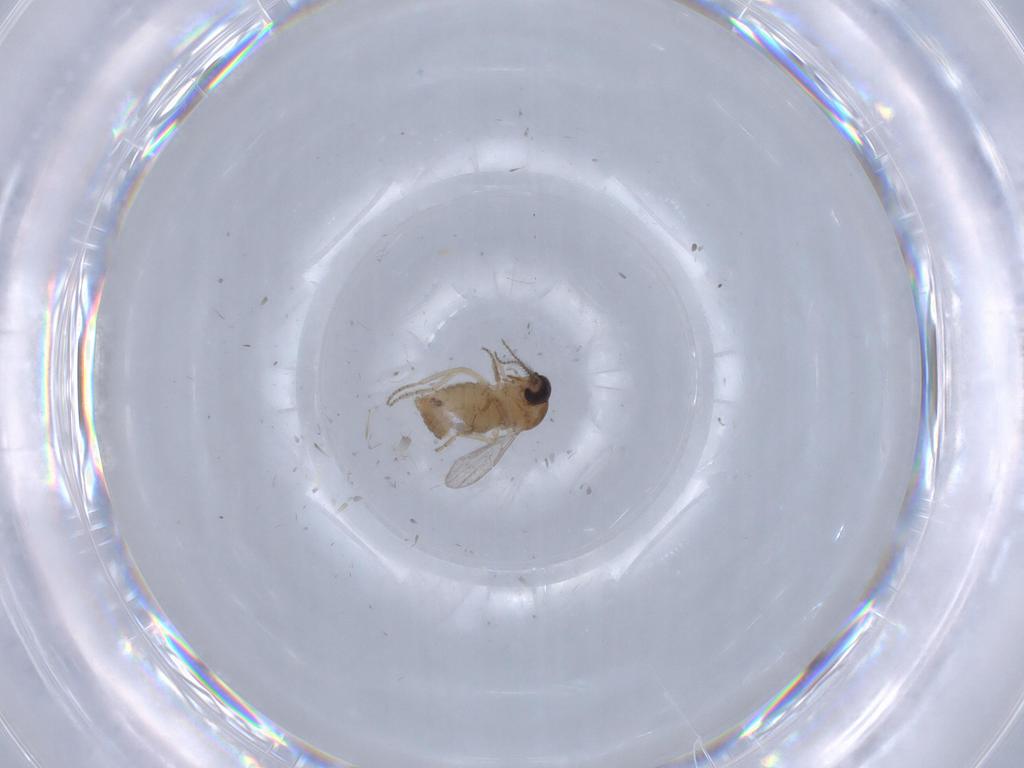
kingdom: Animalia
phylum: Arthropoda
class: Insecta
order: Diptera
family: Ceratopogonidae
